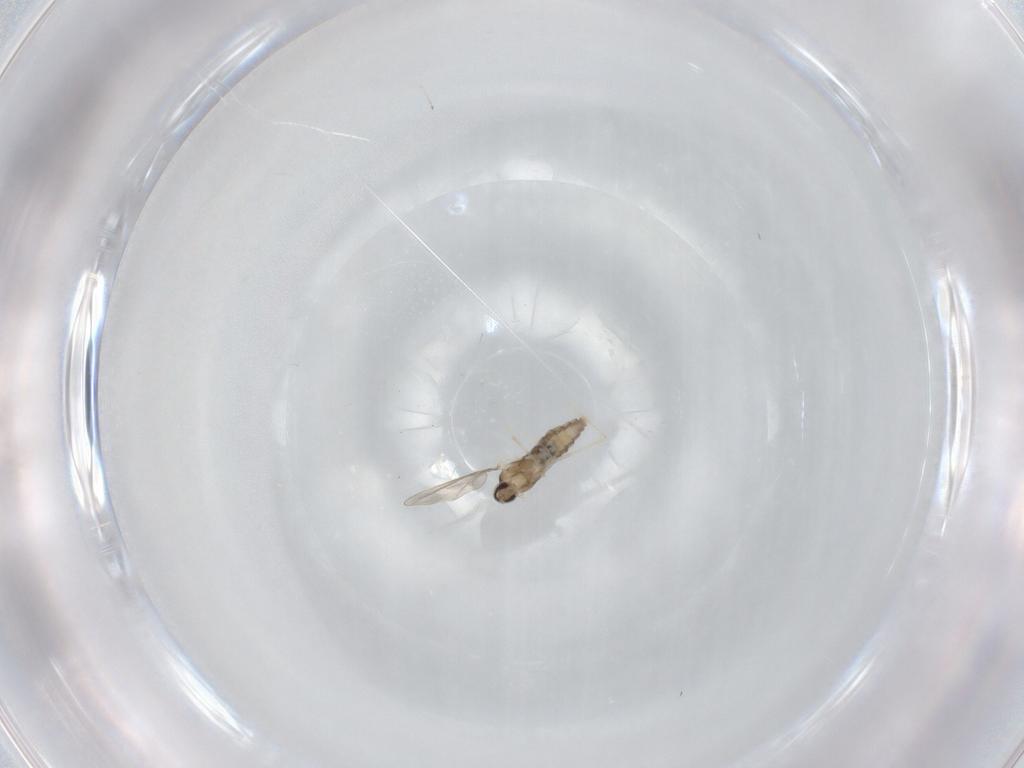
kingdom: Animalia
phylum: Arthropoda
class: Insecta
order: Diptera
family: Cecidomyiidae
